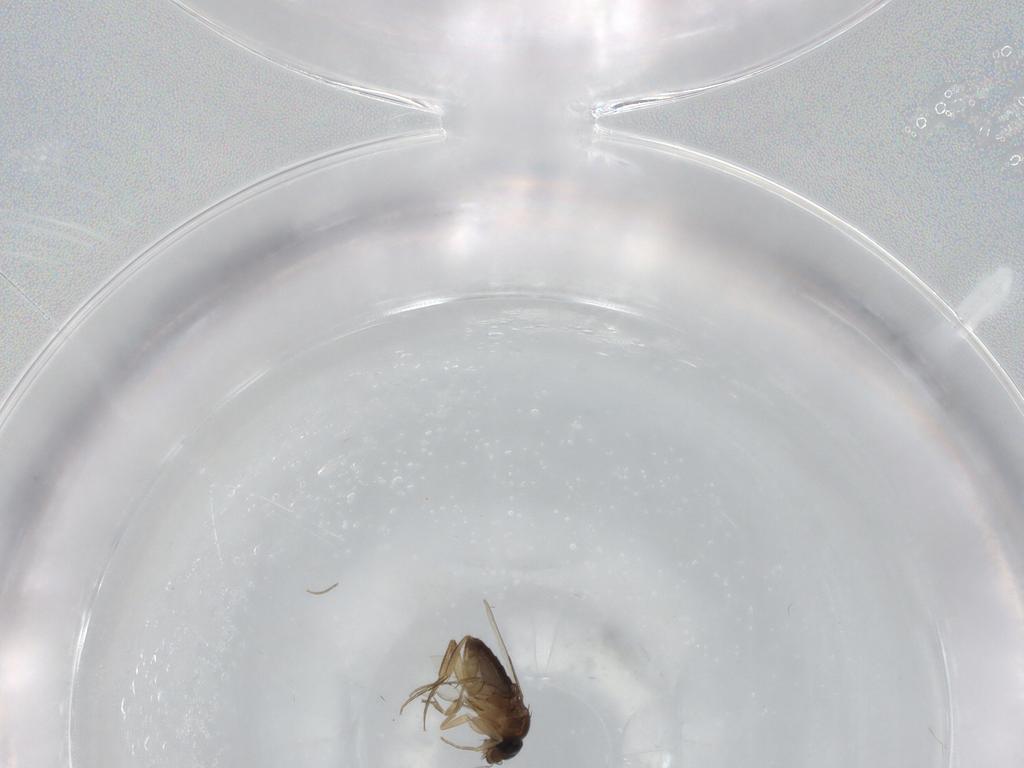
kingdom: Animalia
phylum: Arthropoda
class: Insecta
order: Diptera
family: Phoridae
